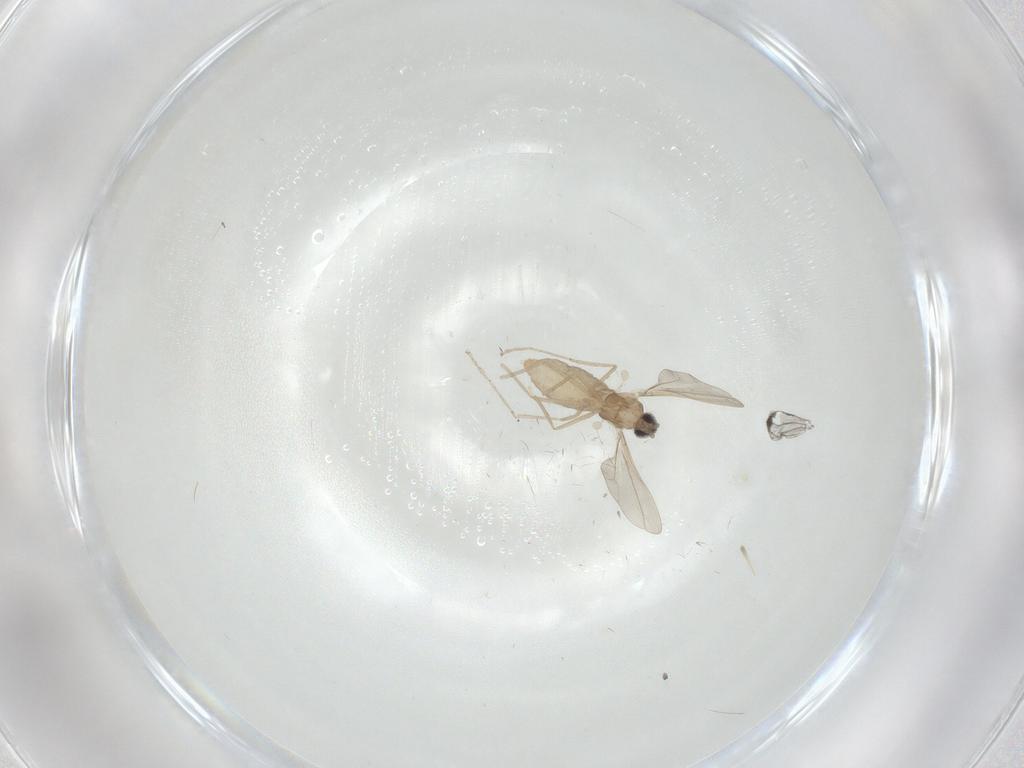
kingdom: Animalia
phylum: Arthropoda
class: Insecta
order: Diptera
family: Cecidomyiidae
